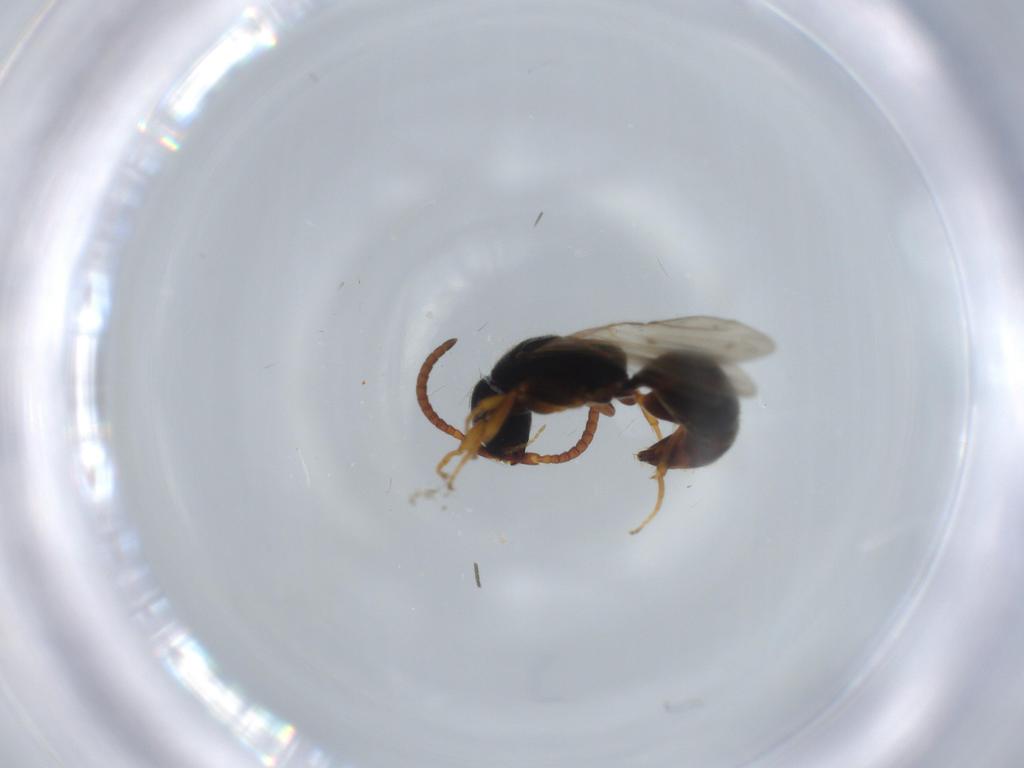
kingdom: Animalia
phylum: Arthropoda
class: Insecta
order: Hymenoptera
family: Bethylidae
